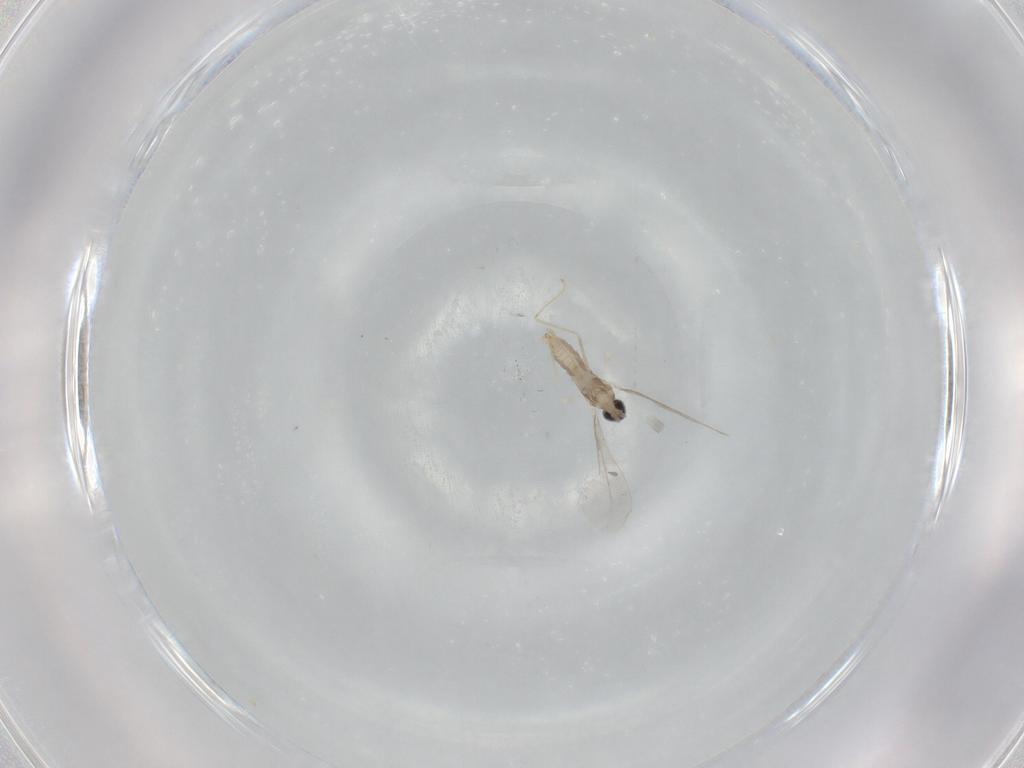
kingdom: Animalia
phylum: Arthropoda
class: Insecta
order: Diptera
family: Cecidomyiidae
